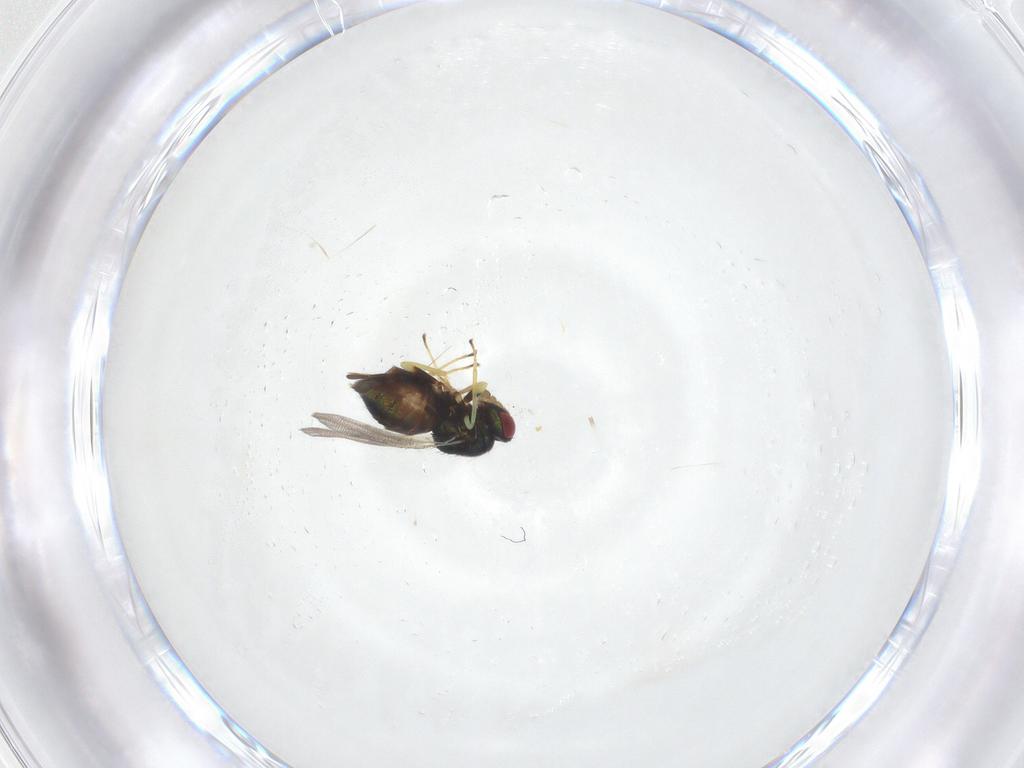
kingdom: Animalia
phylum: Arthropoda
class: Insecta
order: Hymenoptera
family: Eulophidae
